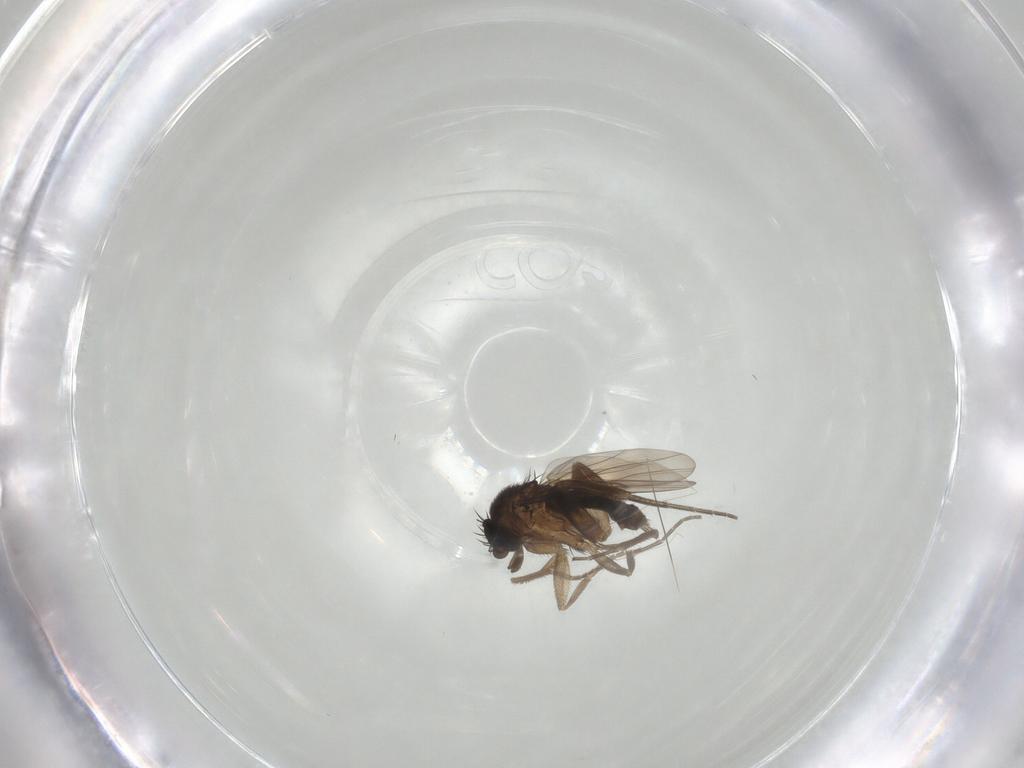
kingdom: Animalia
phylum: Arthropoda
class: Insecta
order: Diptera
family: Phoridae
